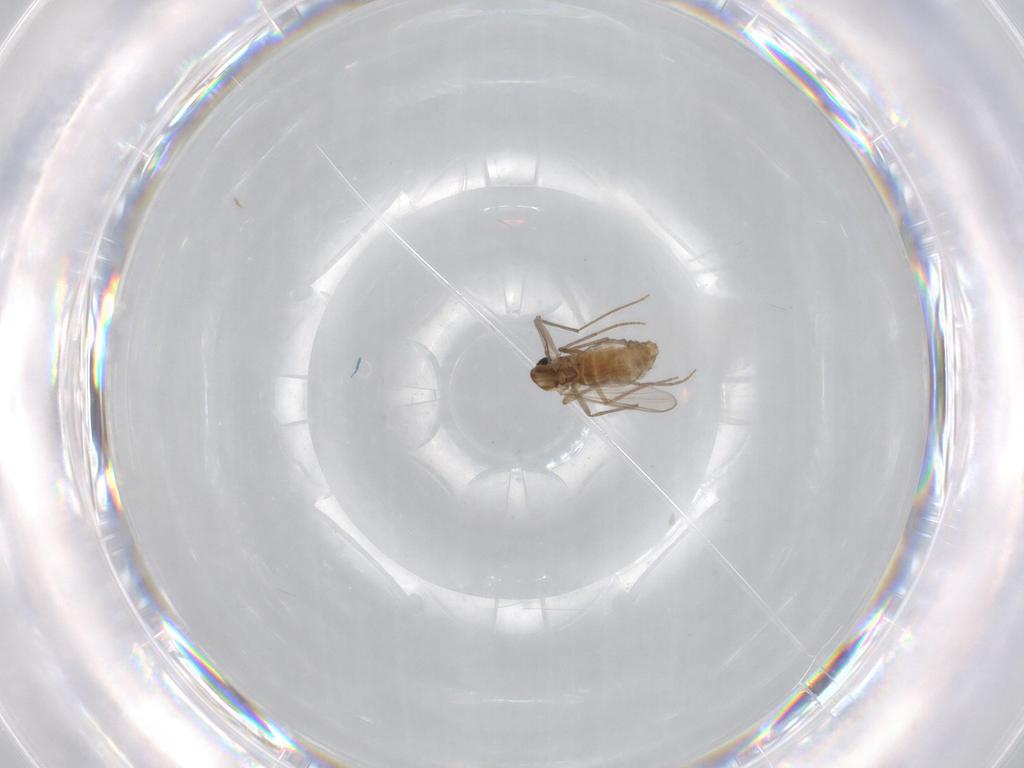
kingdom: Animalia
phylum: Arthropoda
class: Insecta
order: Diptera
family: Chironomidae
